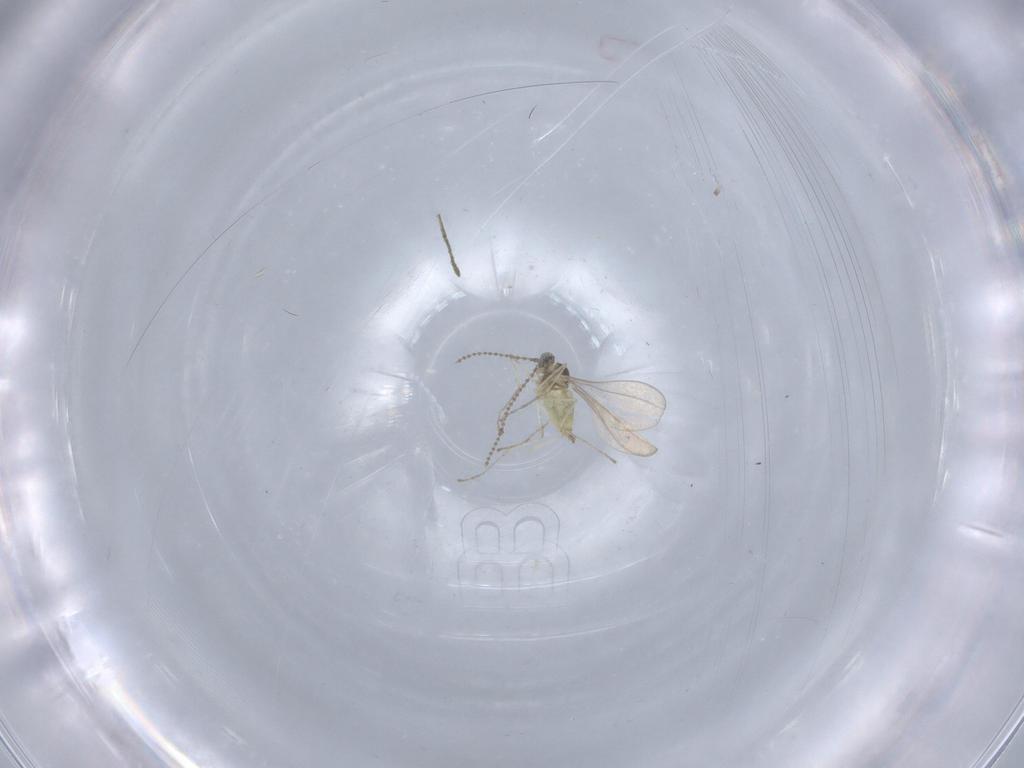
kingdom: Animalia
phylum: Arthropoda
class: Insecta
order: Diptera
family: Cecidomyiidae
